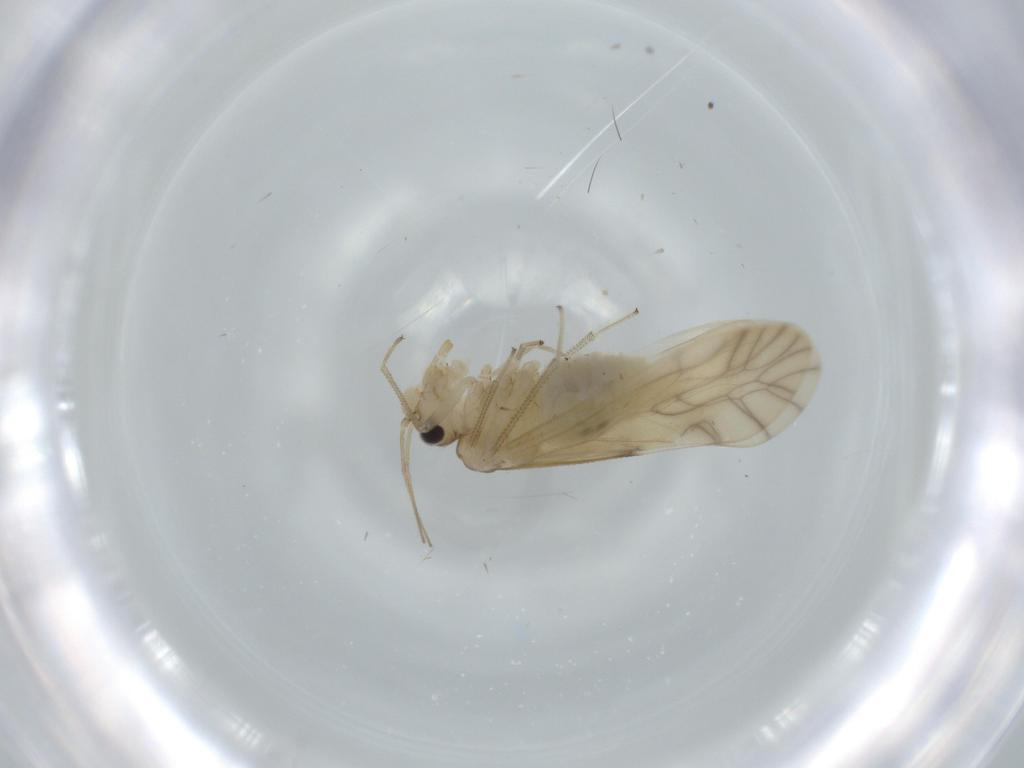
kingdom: Animalia
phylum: Arthropoda
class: Insecta
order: Psocodea
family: Caeciliusidae
